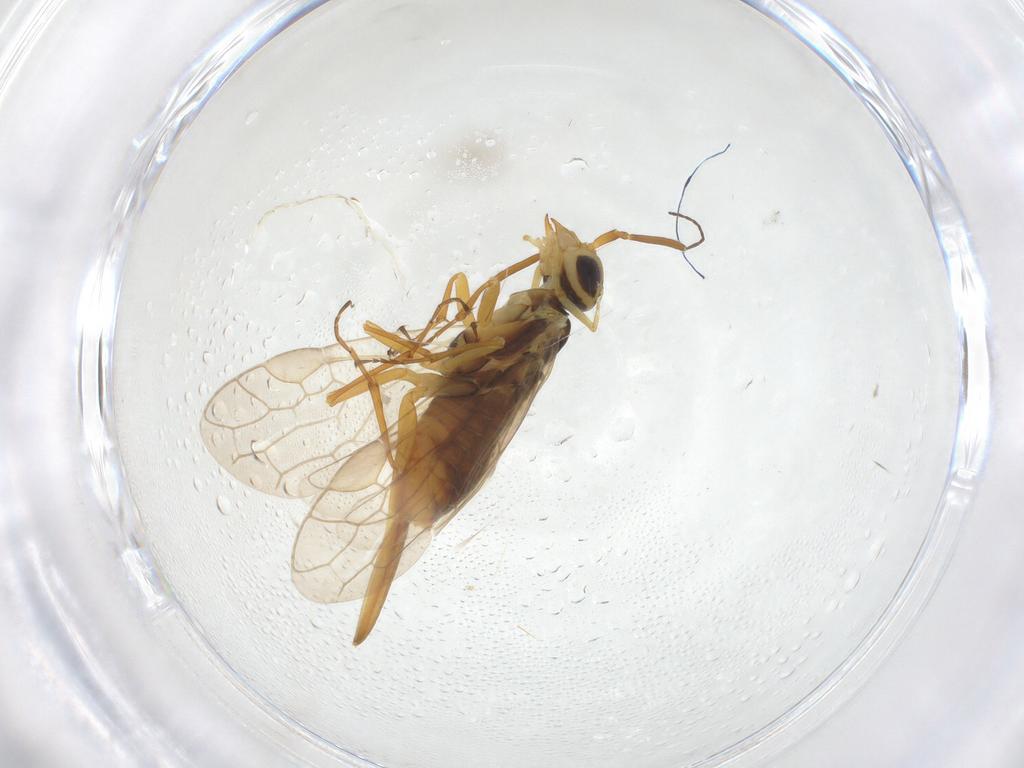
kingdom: Animalia
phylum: Arthropoda
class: Insecta
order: Hymenoptera
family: Xyelidae
